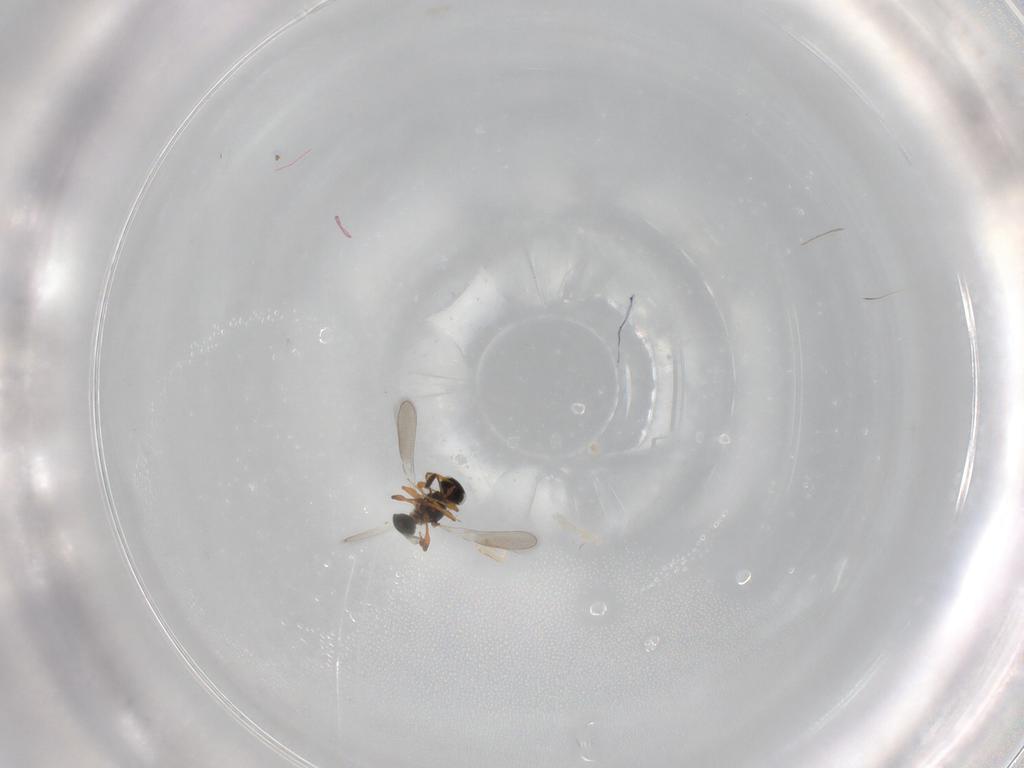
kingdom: Animalia
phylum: Arthropoda
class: Insecta
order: Hymenoptera
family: Platygastridae
